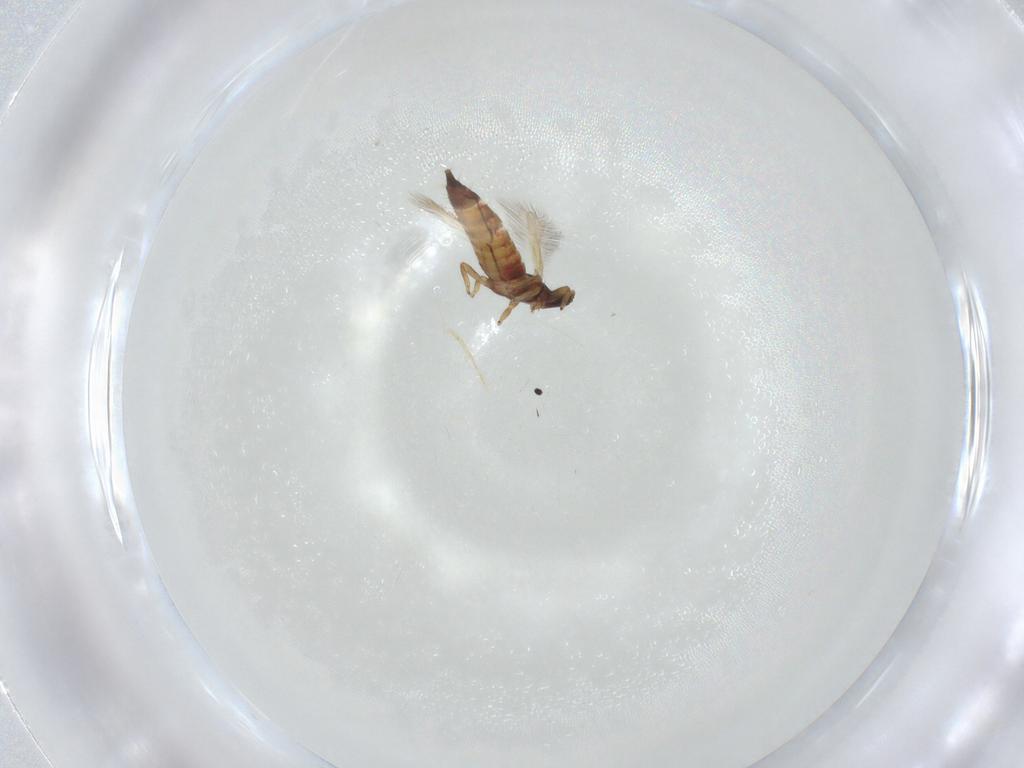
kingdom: Animalia
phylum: Arthropoda
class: Insecta
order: Thysanoptera
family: Phlaeothripidae
